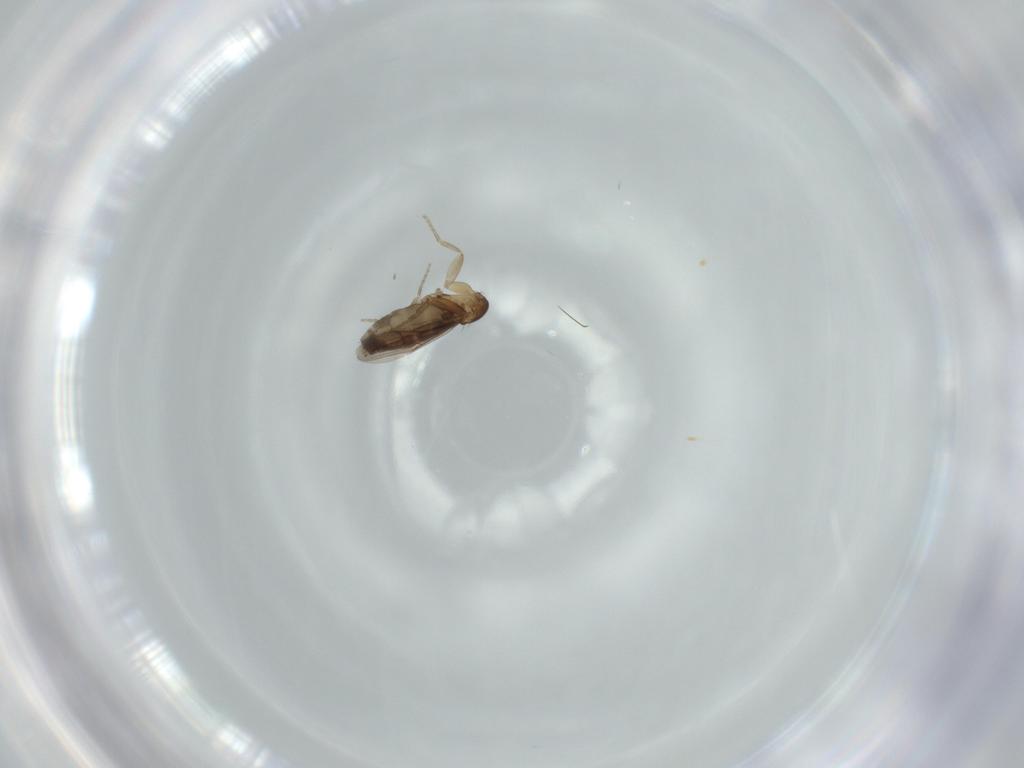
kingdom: Animalia
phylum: Arthropoda
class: Insecta
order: Diptera
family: Phoridae
